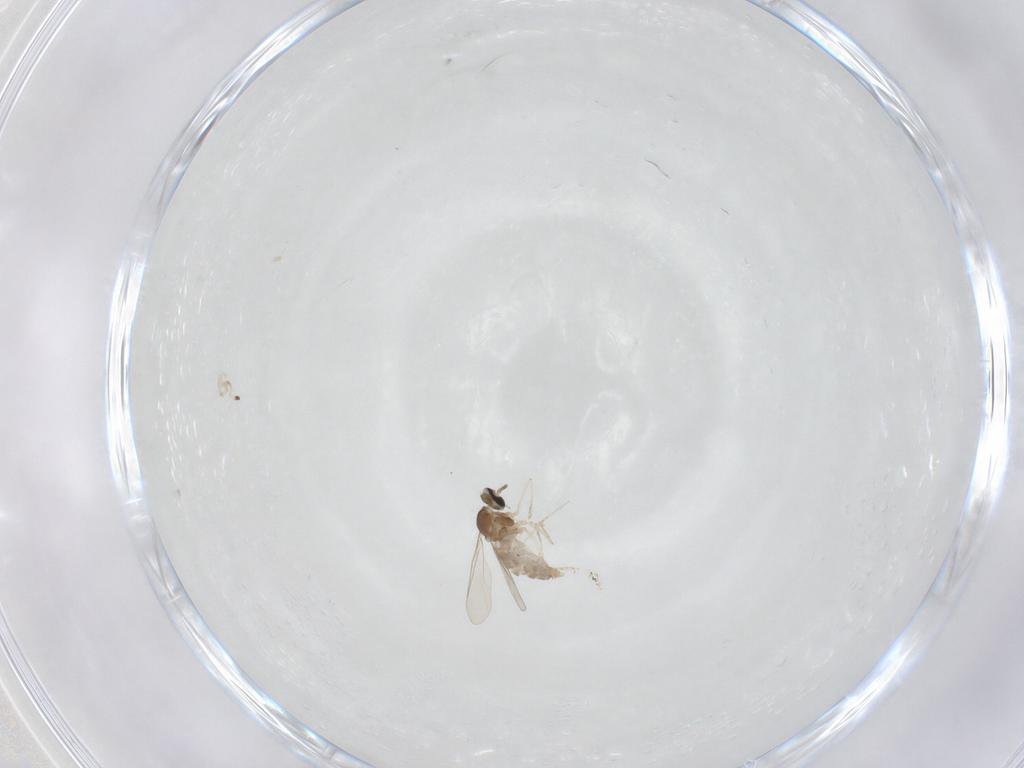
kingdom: Animalia
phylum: Arthropoda
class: Insecta
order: Diptera
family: Cecidomyiidae
